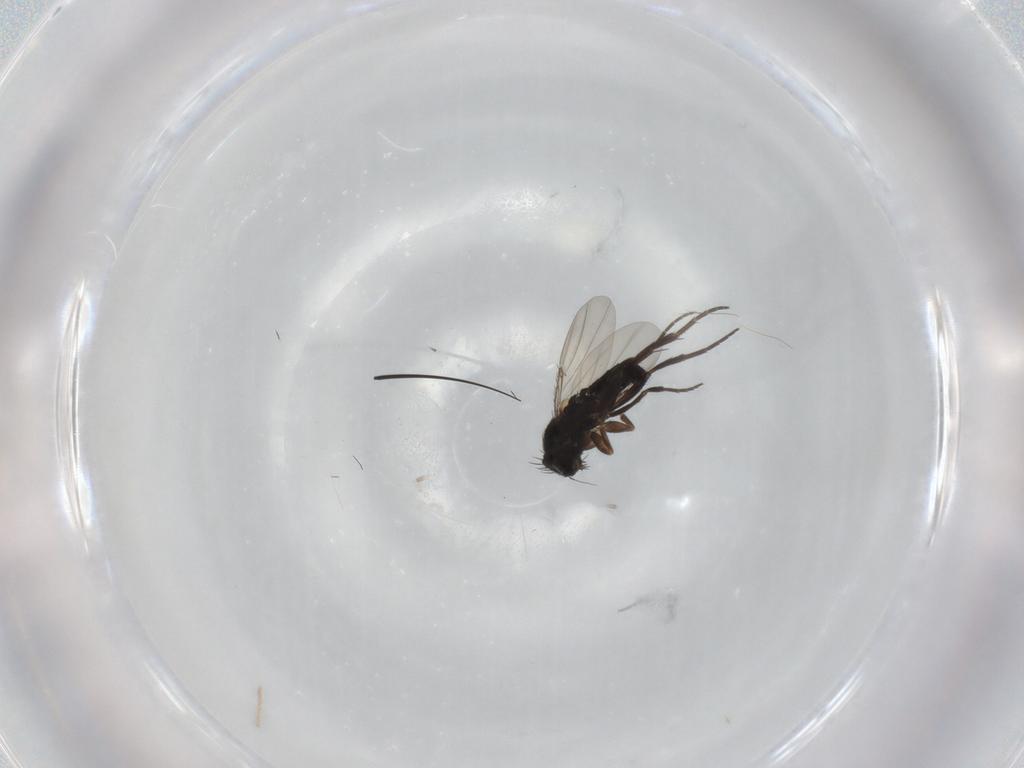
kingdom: Animalia
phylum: Arthropoda
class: Insecta
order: Diptera
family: Phoridae
